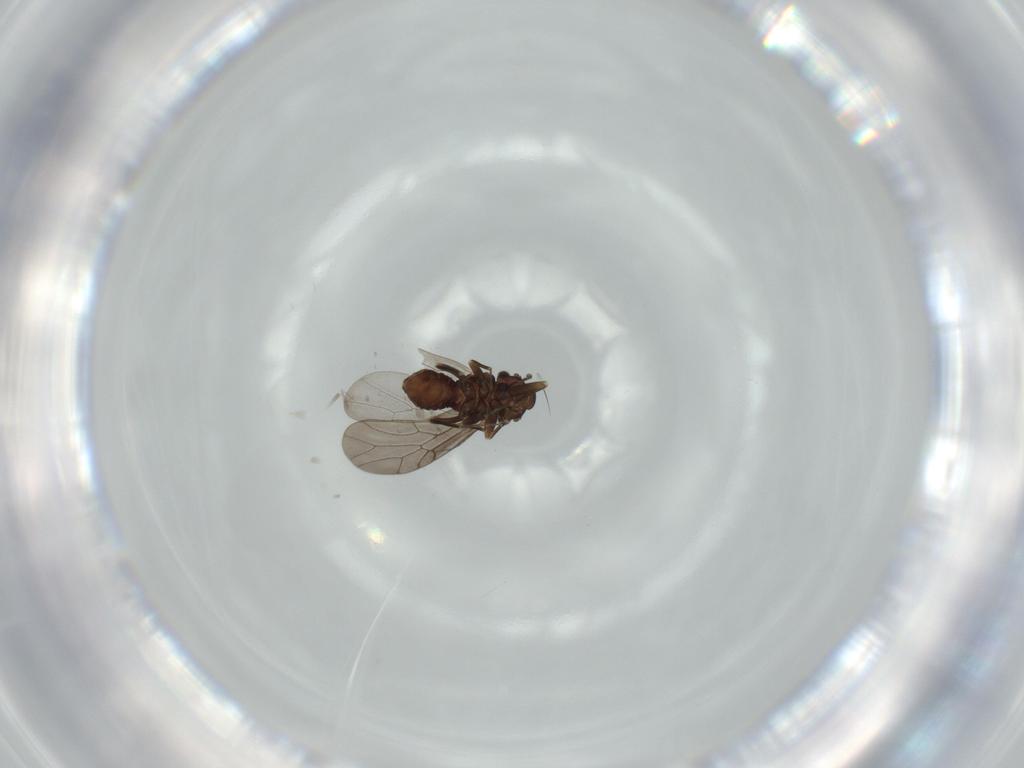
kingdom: Animalia
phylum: Arthropoda
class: Insecta
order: Psocodea
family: Lepidopsocidae
